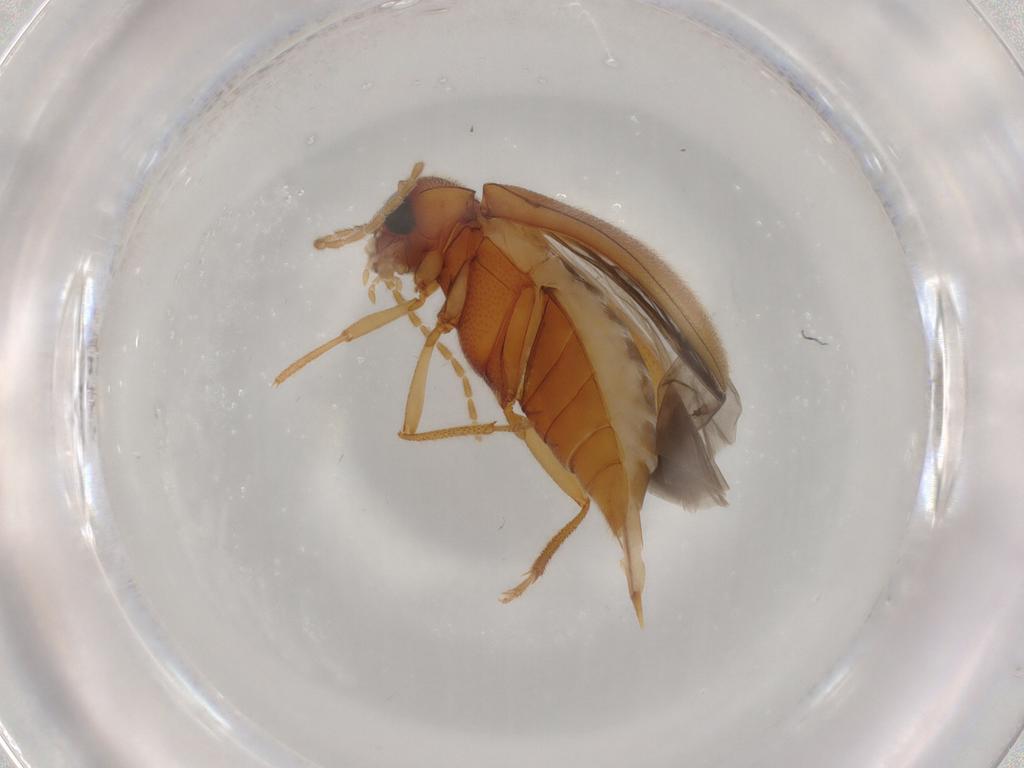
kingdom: Animalia
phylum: Arthropoda
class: Insecta
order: Coleoptera
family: Ptilodactylidae
